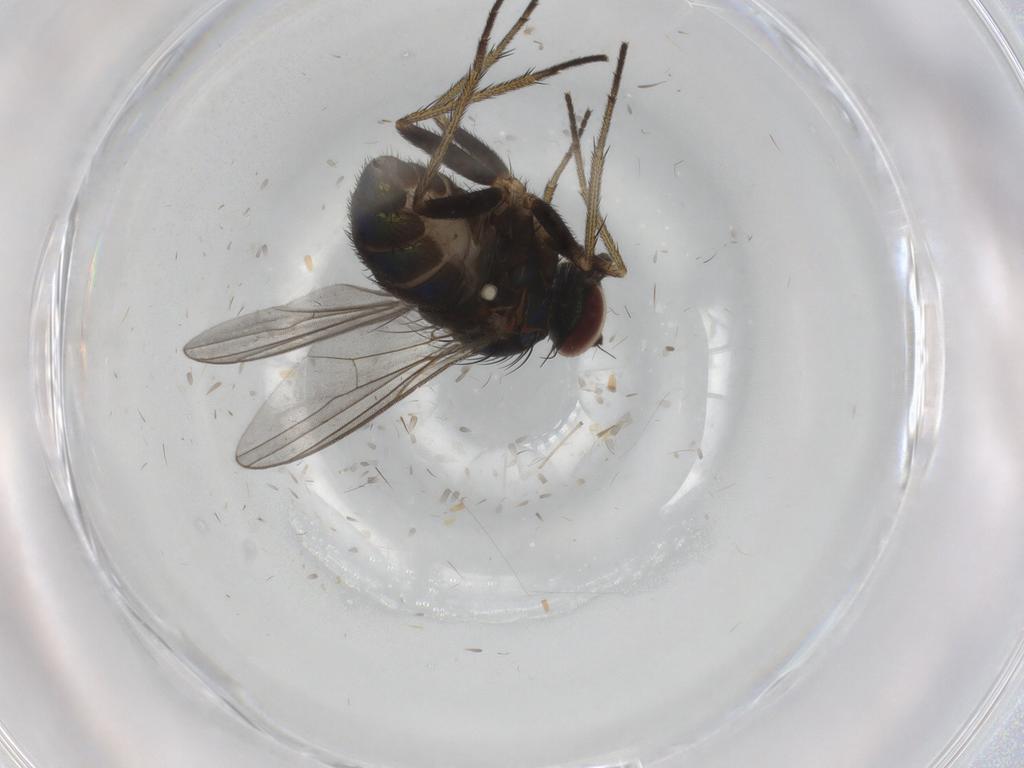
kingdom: Animalia
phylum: Arthropoda
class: Insecta
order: Diptera
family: Dolichopodidae
